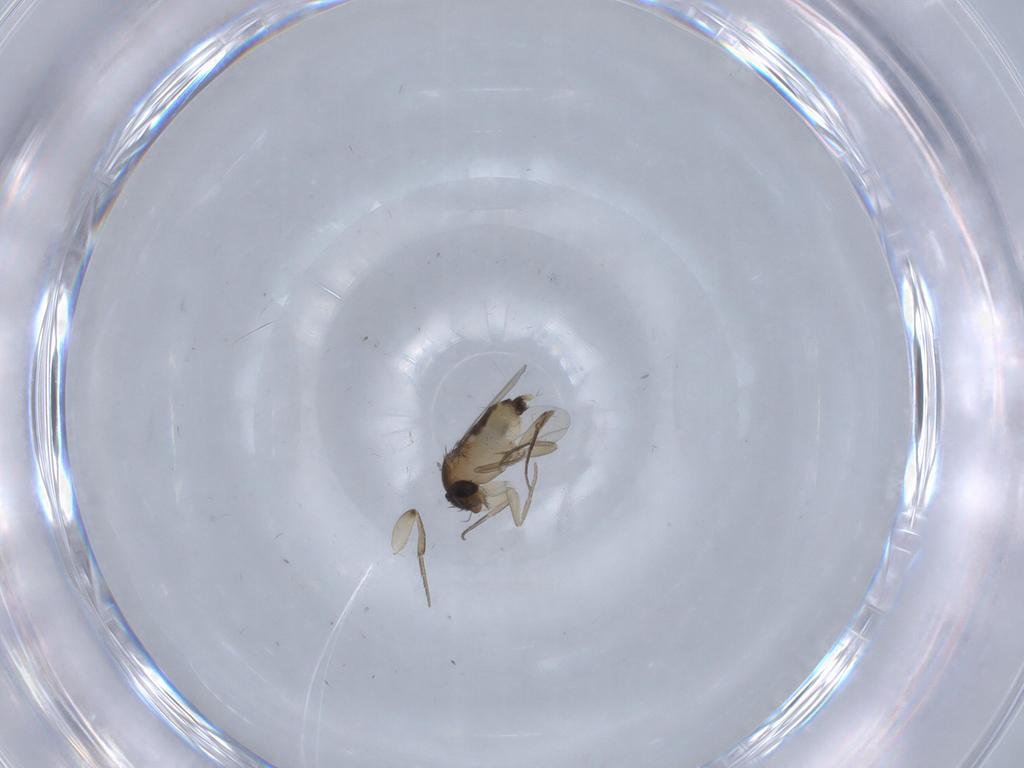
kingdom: Animalia
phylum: Arthropoda
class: Insecta
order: Diptera
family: Phoridae
